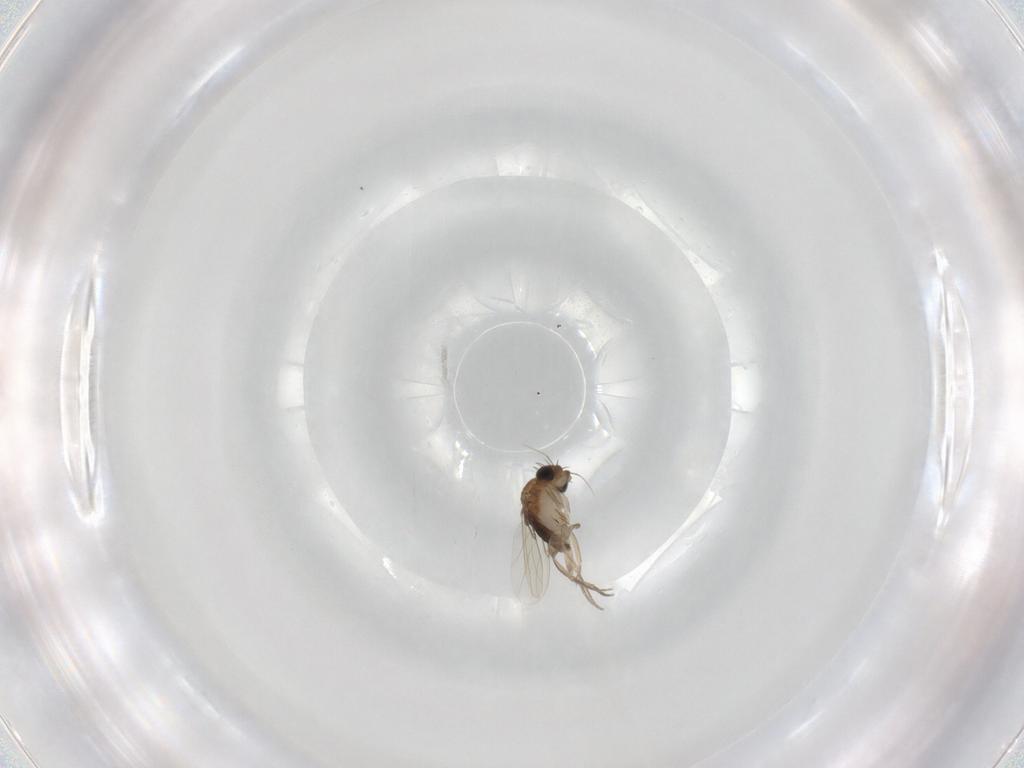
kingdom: Animalia
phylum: Arthropoda
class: Insecta
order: Diptera
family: Phoridae
